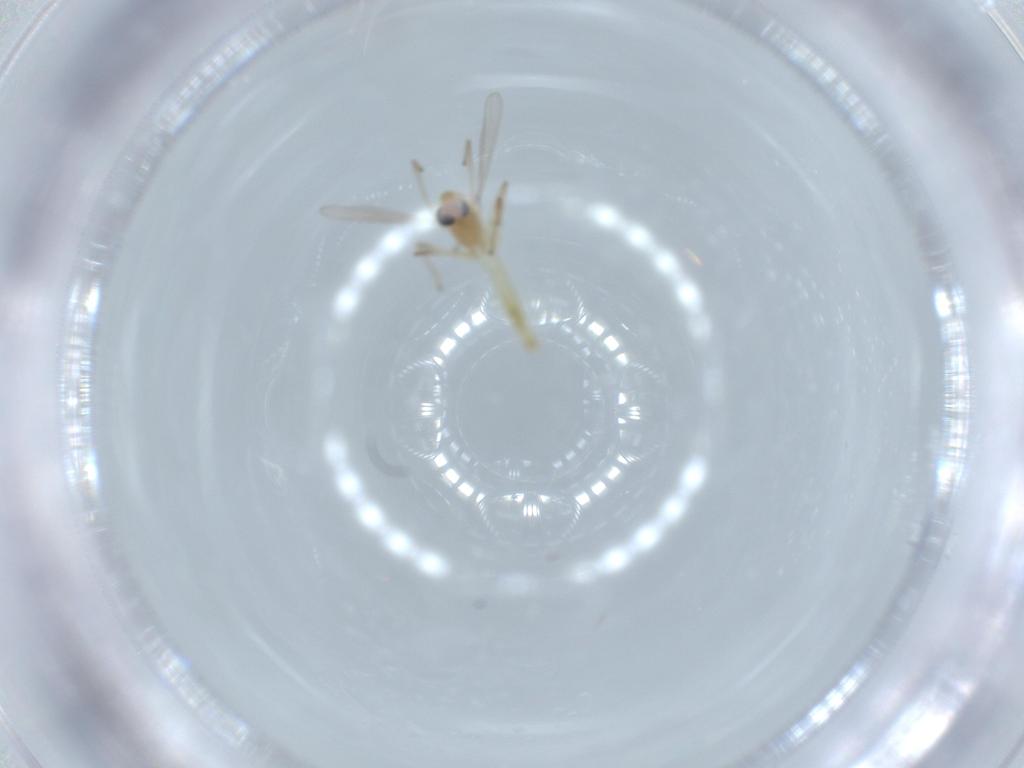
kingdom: Animalia
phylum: Arthropoda
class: Insecta
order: Diptera
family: Chironomidae
